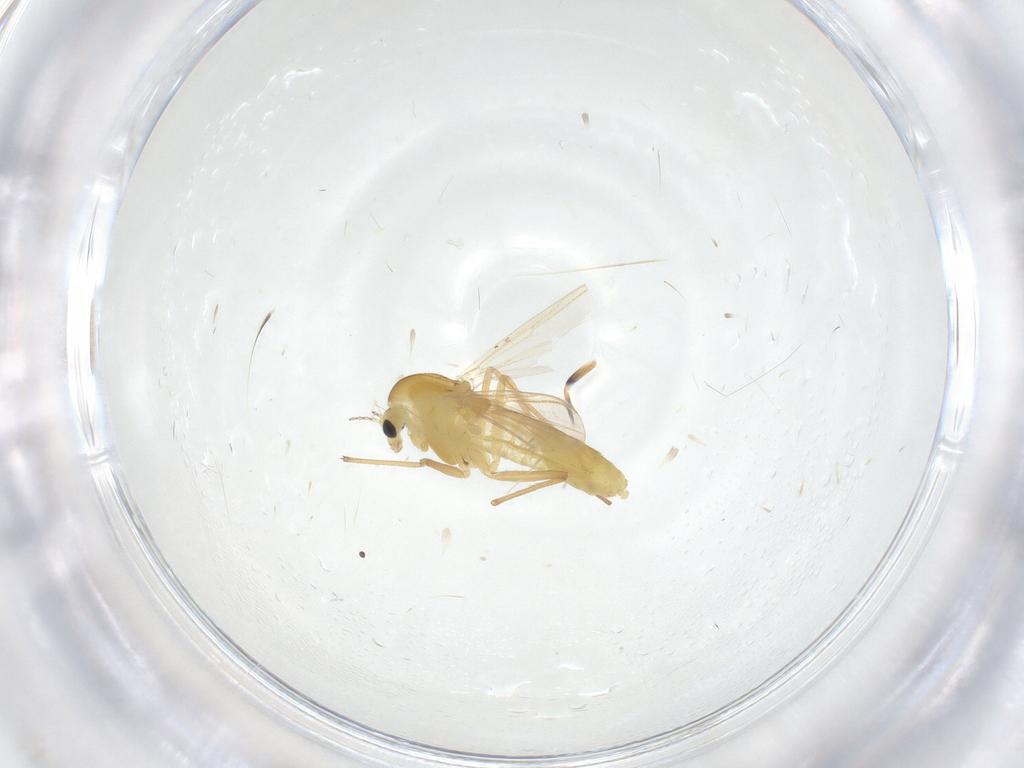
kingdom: Animalia
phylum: Arthropoda
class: Insecta
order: Diptera
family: Chironomidae
